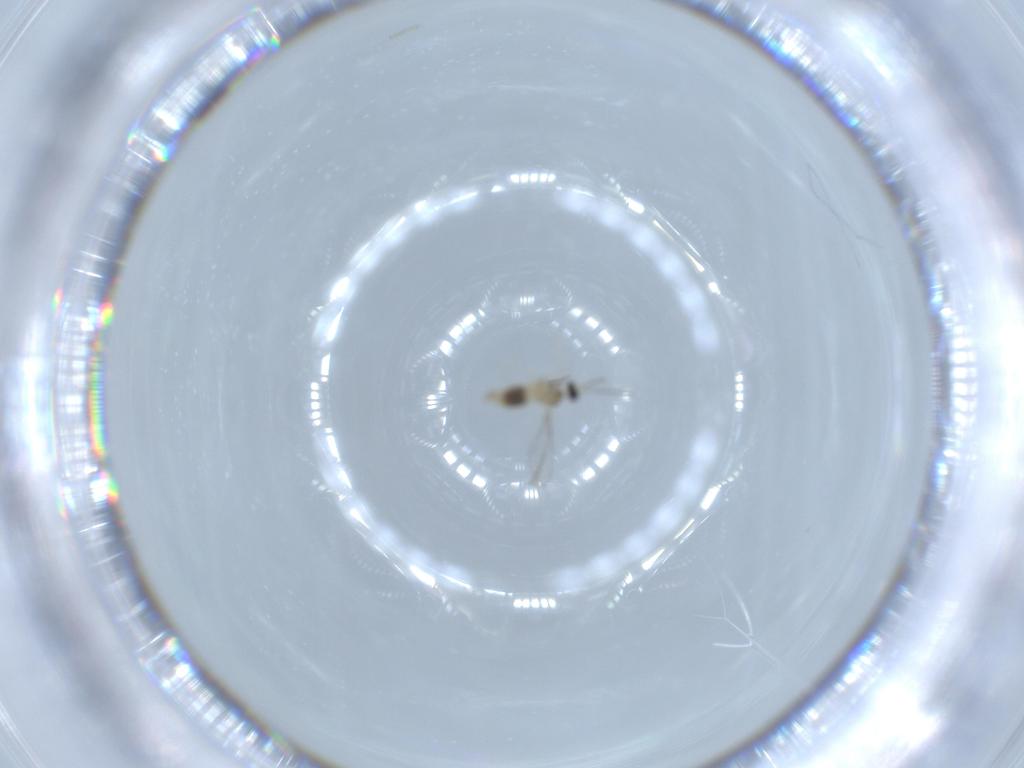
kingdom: Animalia
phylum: Arthropoda
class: Insecta
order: Diptera
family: Cecidomyiidae
